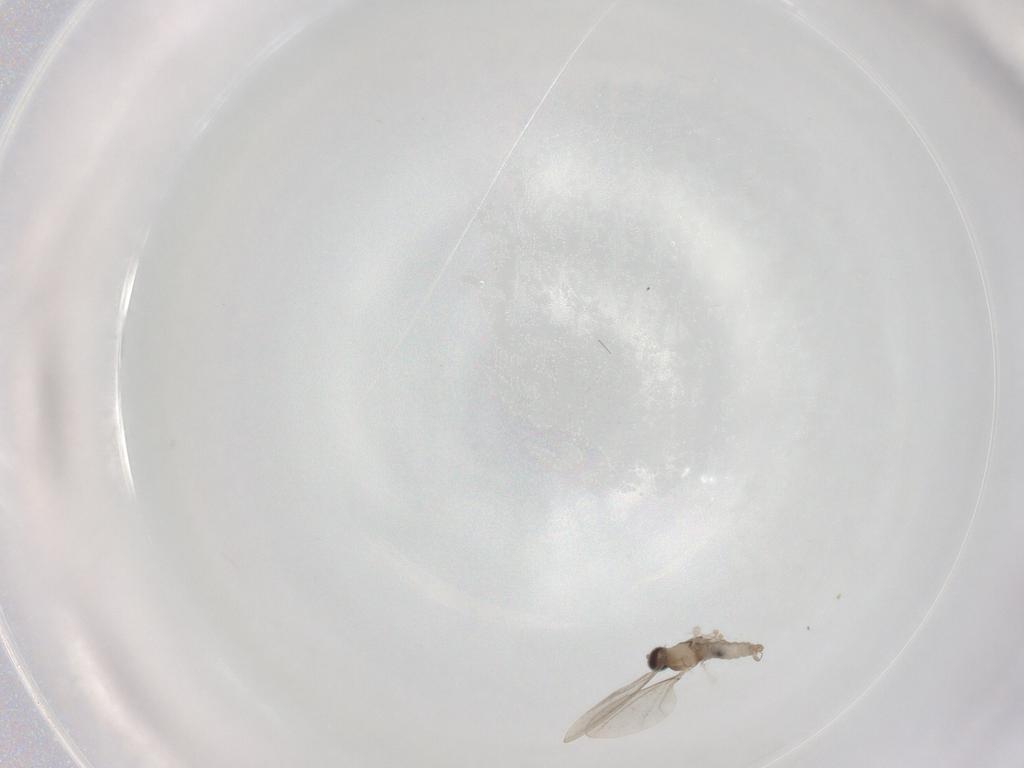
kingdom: Animalia
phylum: Arthropoda
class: Insecta
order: Diptera
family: Cecidomyiidae
